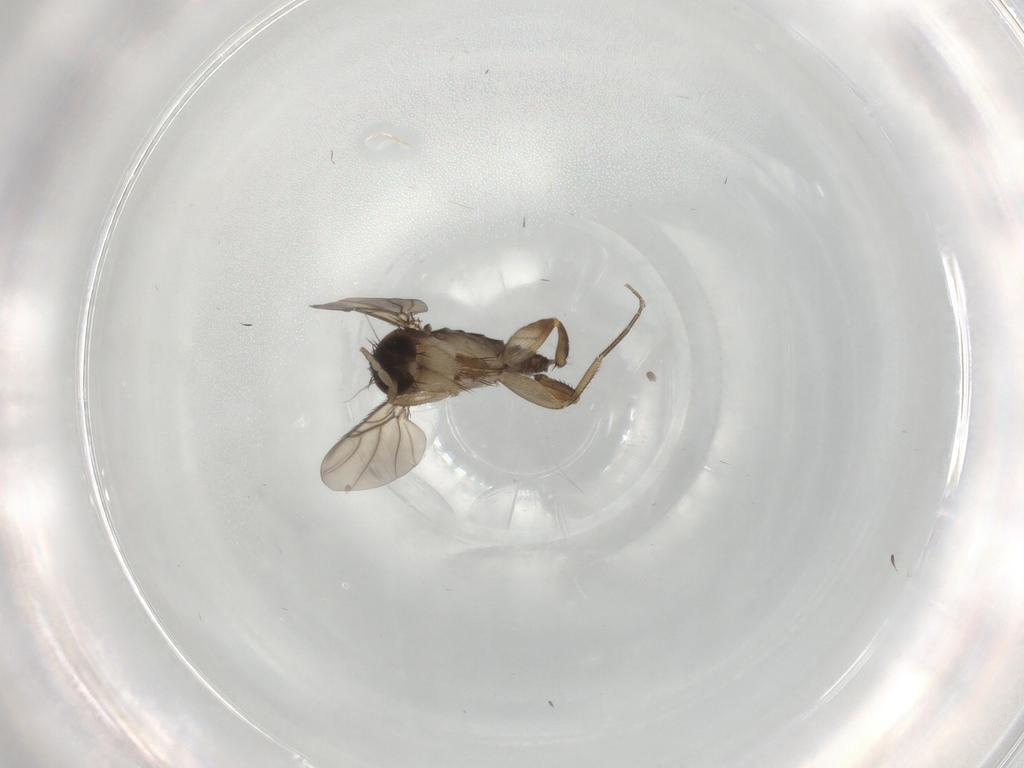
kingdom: Animalia
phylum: Arthropoda
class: Insecta
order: Diptera
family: Phoridae
